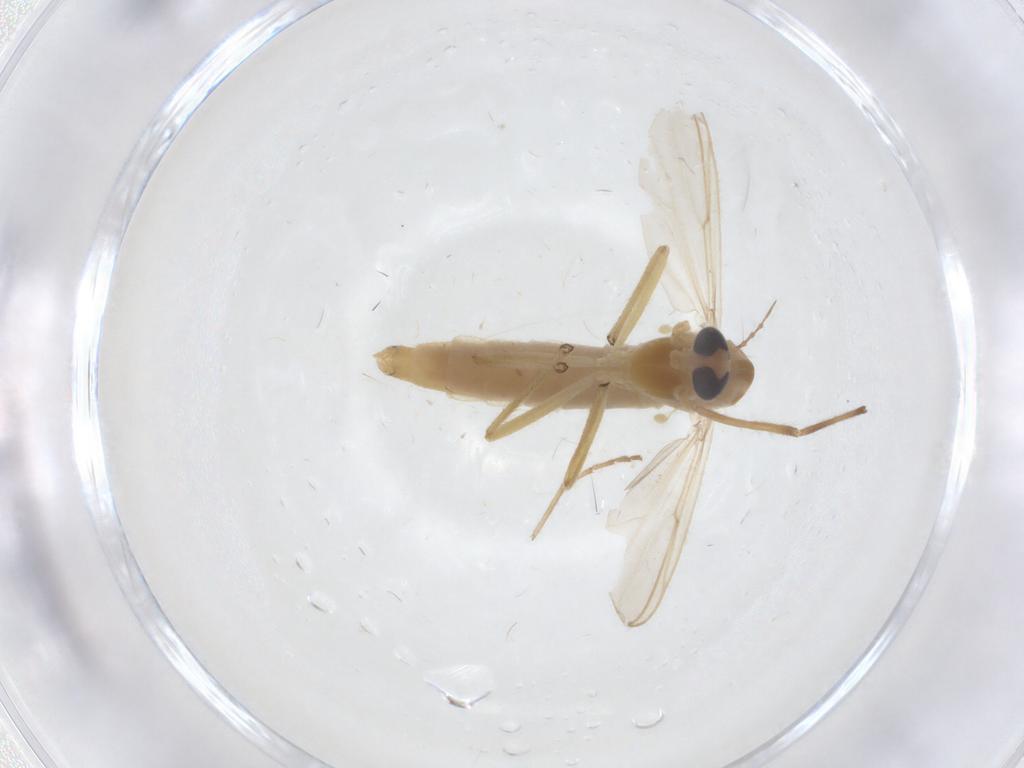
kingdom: Animalia
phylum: Arthropoda
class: Insecta
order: Diptera
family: Chironomidae
